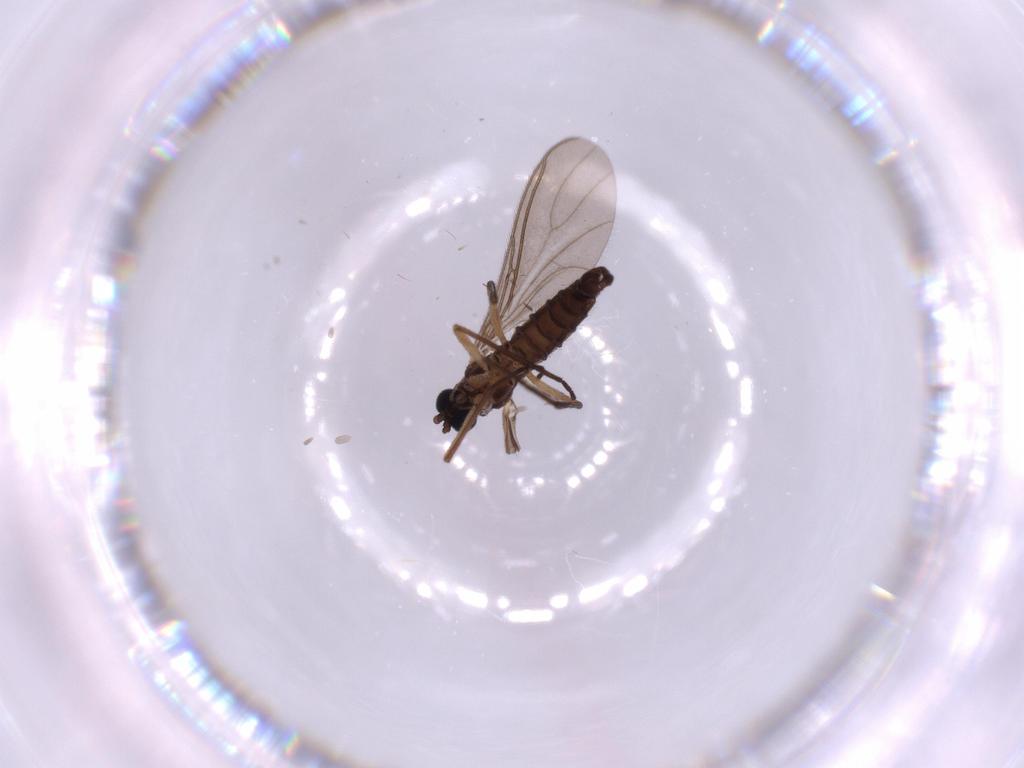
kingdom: Animalia
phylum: Arthropoda
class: Insecta
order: Diptera
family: Sciaridae
